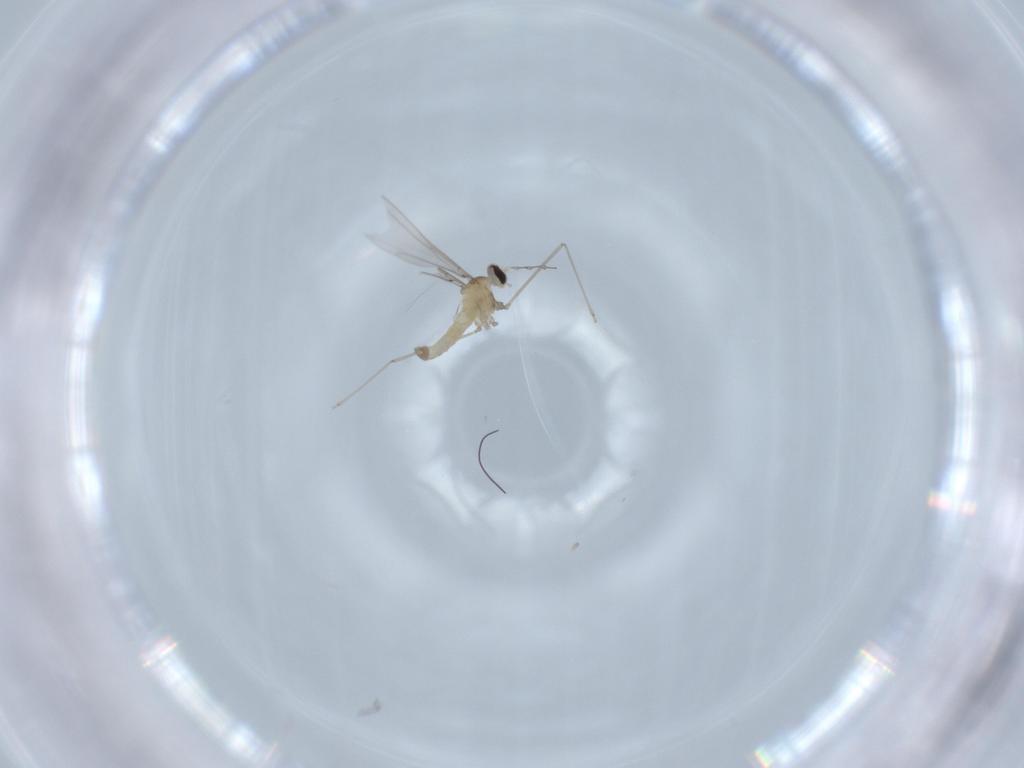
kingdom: Animalia
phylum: Arthropoda
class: Insecta
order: Diptera
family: Cecidomyiidae
